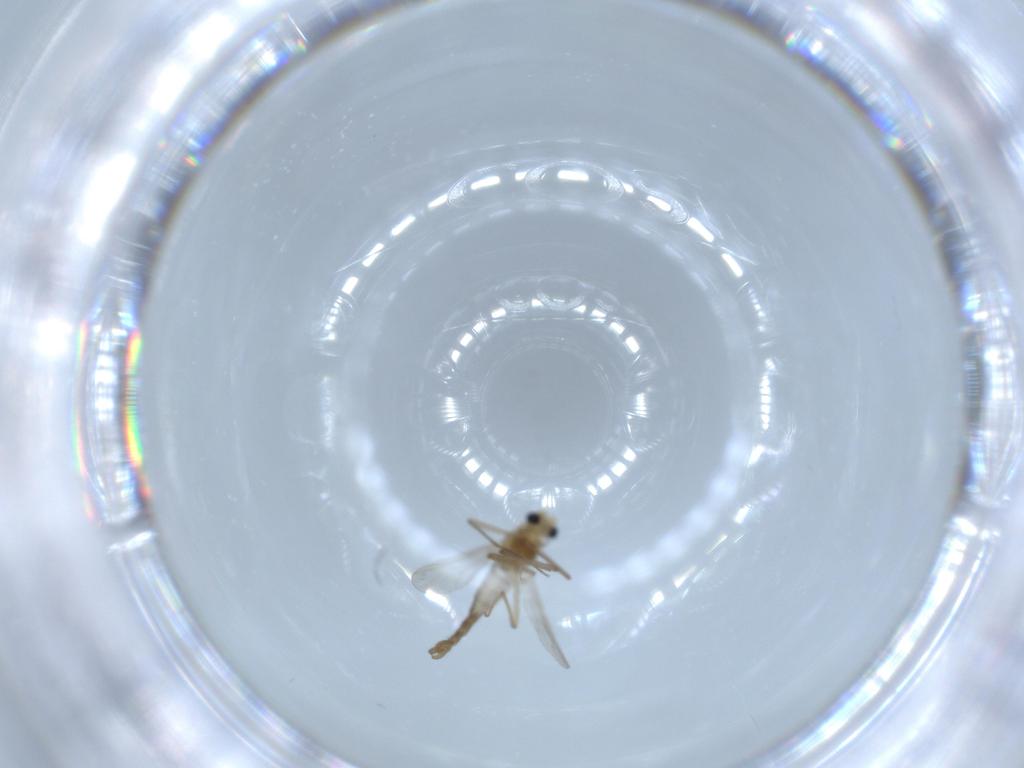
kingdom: Animalia
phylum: Arthropoda
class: Insecta
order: Diptera
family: Chironomidae
